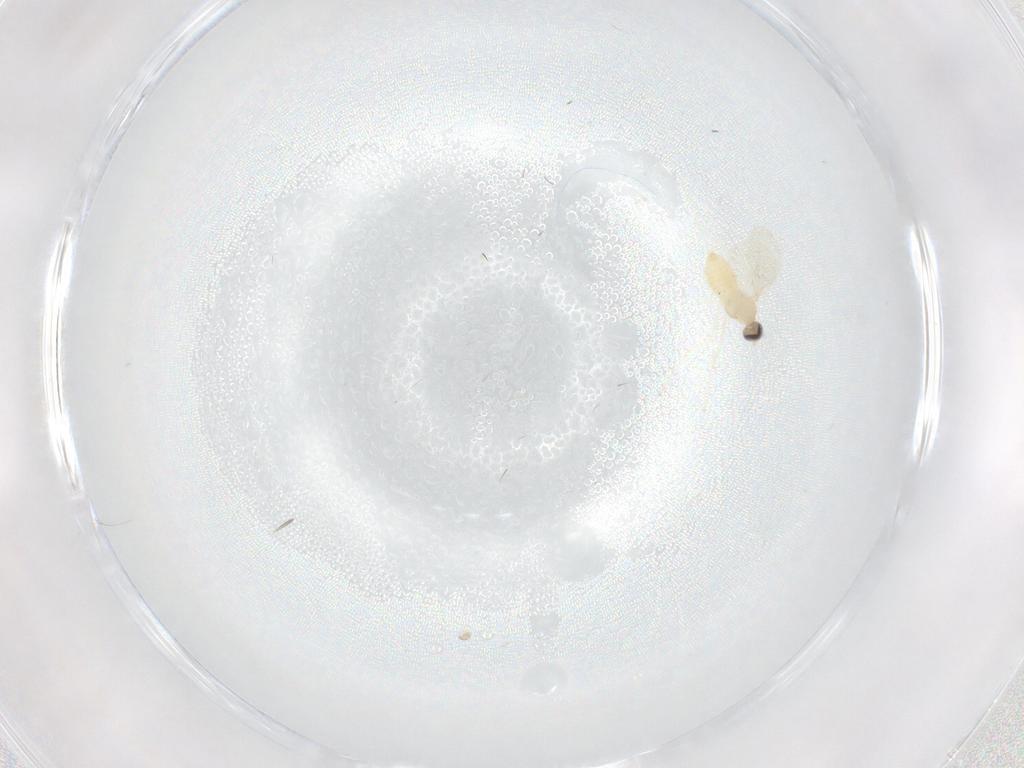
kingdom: Animalia
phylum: Arthropoda
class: Insecta
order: Diptera
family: Cecidomyiidae
